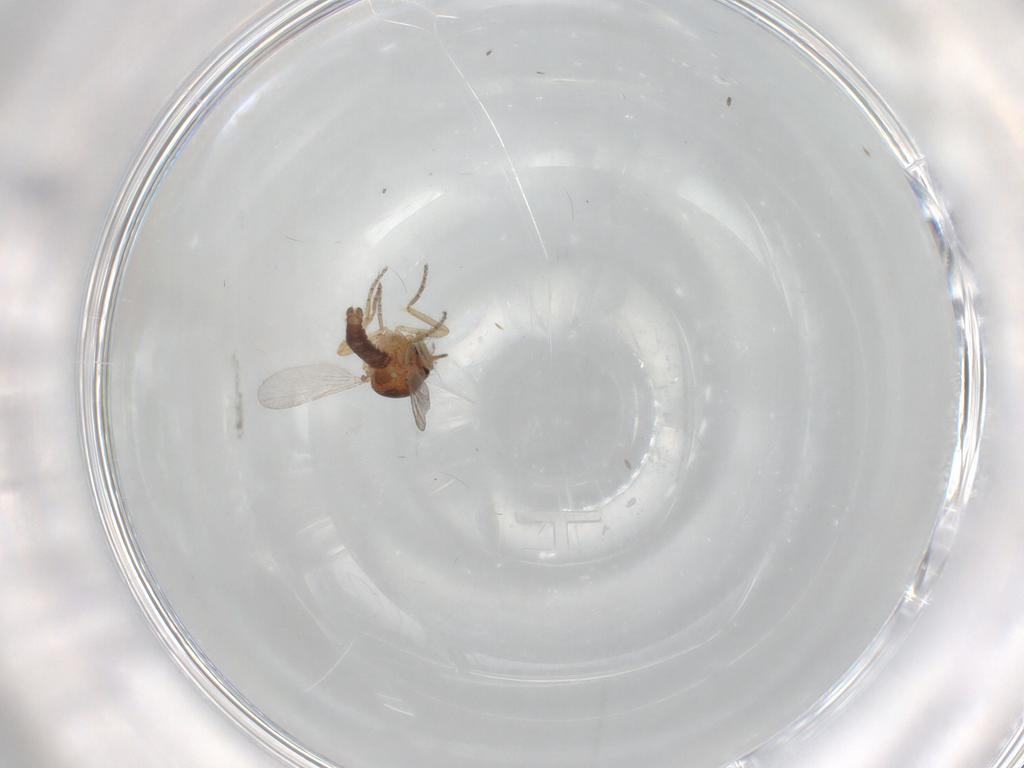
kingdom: Animalia
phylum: Arthropoda
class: Insecta
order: Diptera
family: Ceratopogonidae
